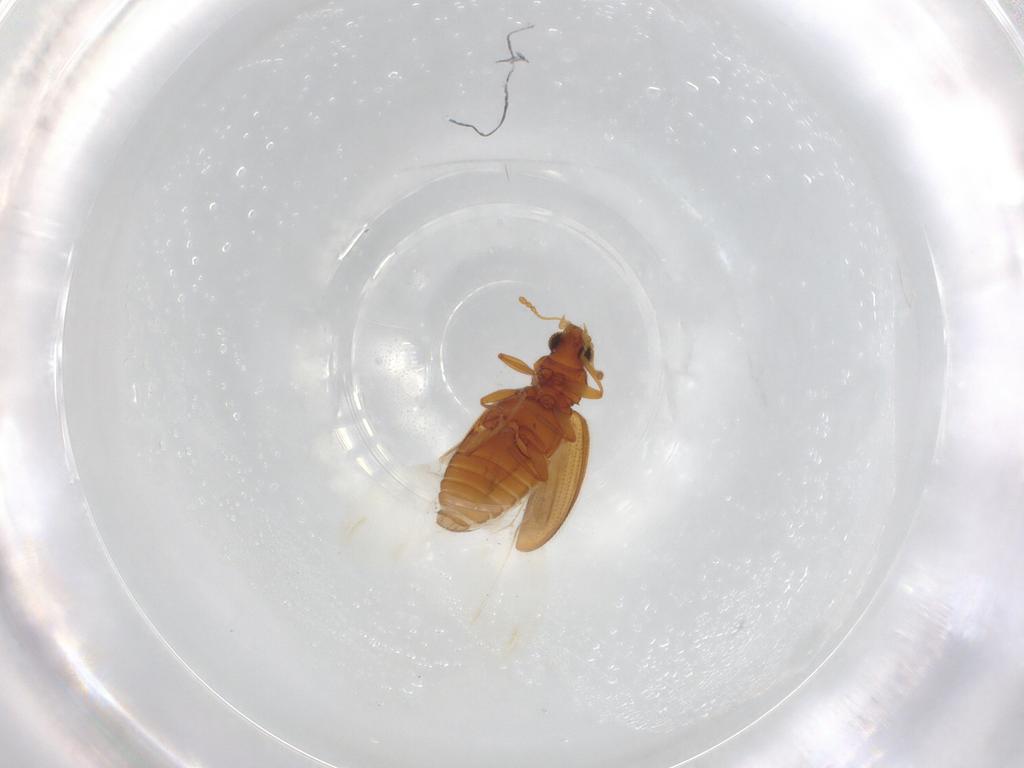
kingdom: Animalia
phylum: Arthropoda
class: Insecta
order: Coleoptera
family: Latridiidae
